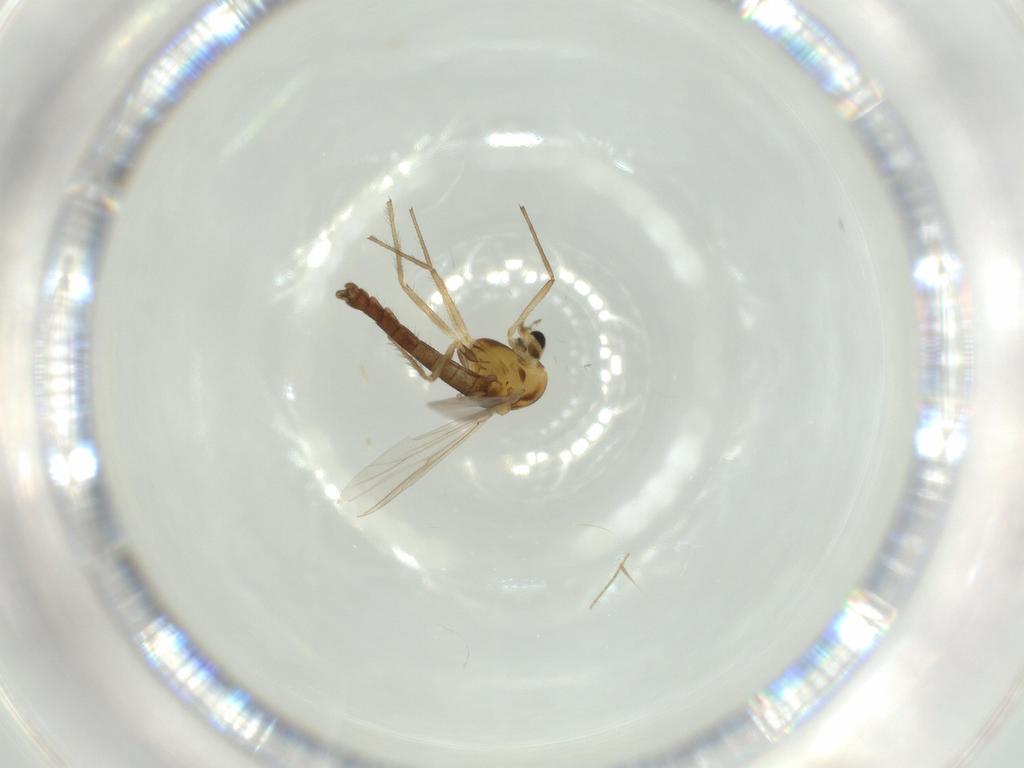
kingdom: Animalia
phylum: Arthropoda
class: Insecta
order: Diptera
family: Chironomidae
